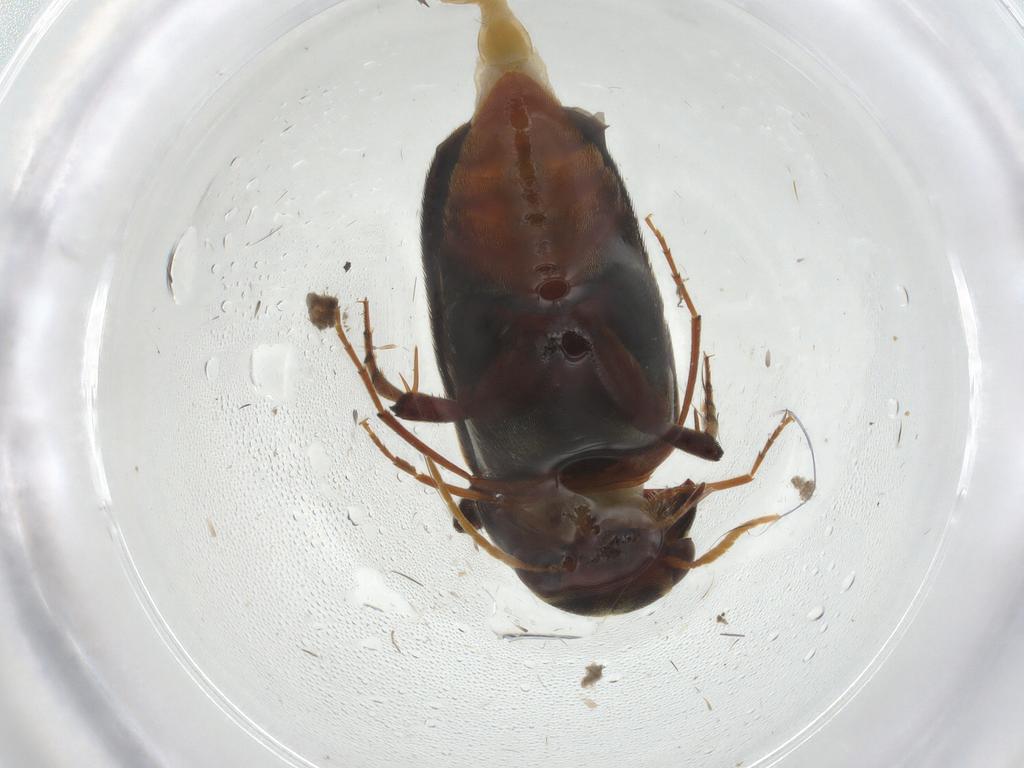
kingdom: Animalia
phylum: Arthropoda
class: Insecta
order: Coleoptera
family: Mordellidae
